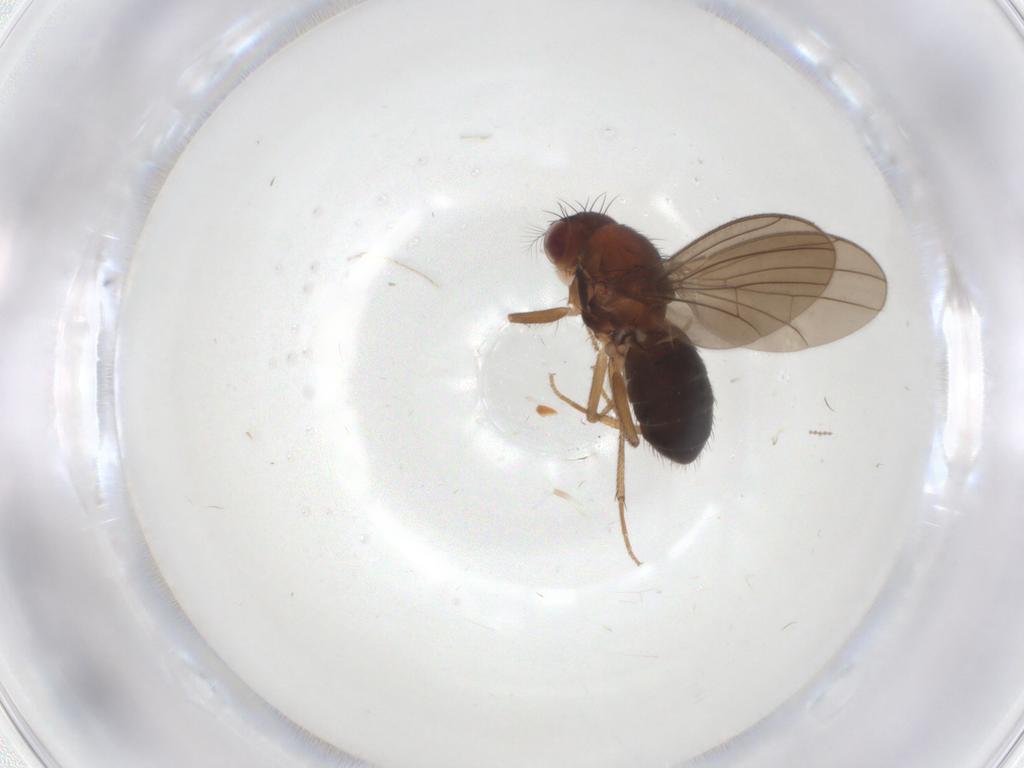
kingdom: Animalia
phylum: Arthropoda
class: Insecta
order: Diptera
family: Drosophilidae
